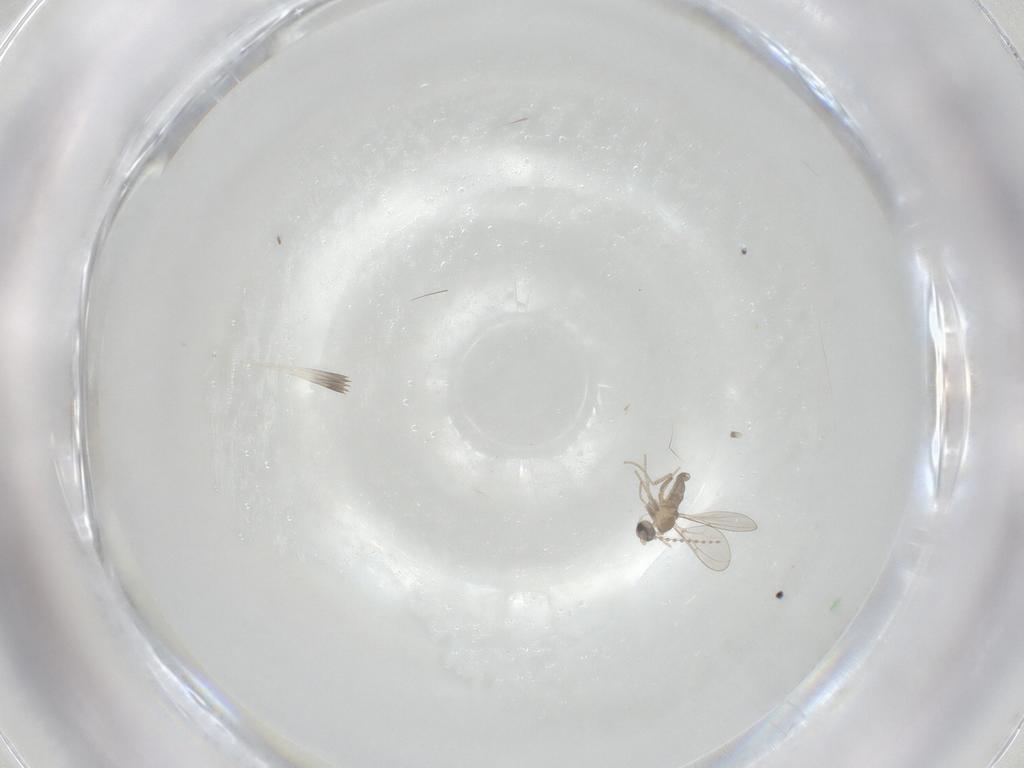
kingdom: Animalia
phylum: Arthropoda
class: Insecta
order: Diptera
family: Cecidomyiidae
